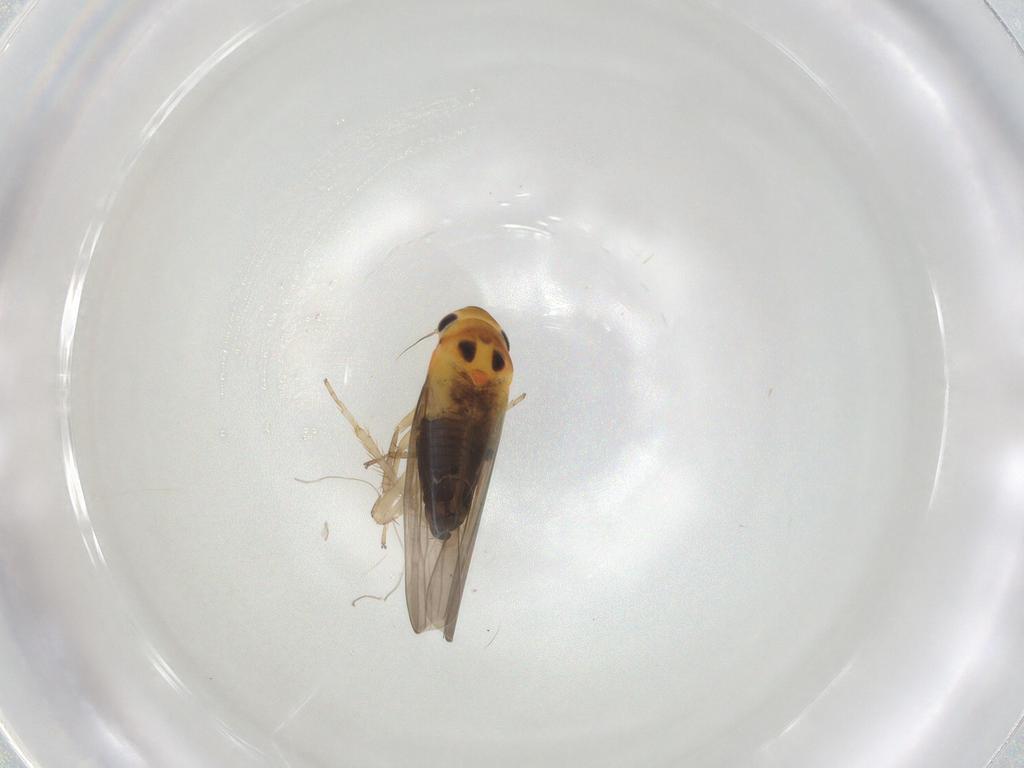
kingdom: Animalia
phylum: Arthropoda
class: Insecta
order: Hemiptera
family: Cicadellidae
